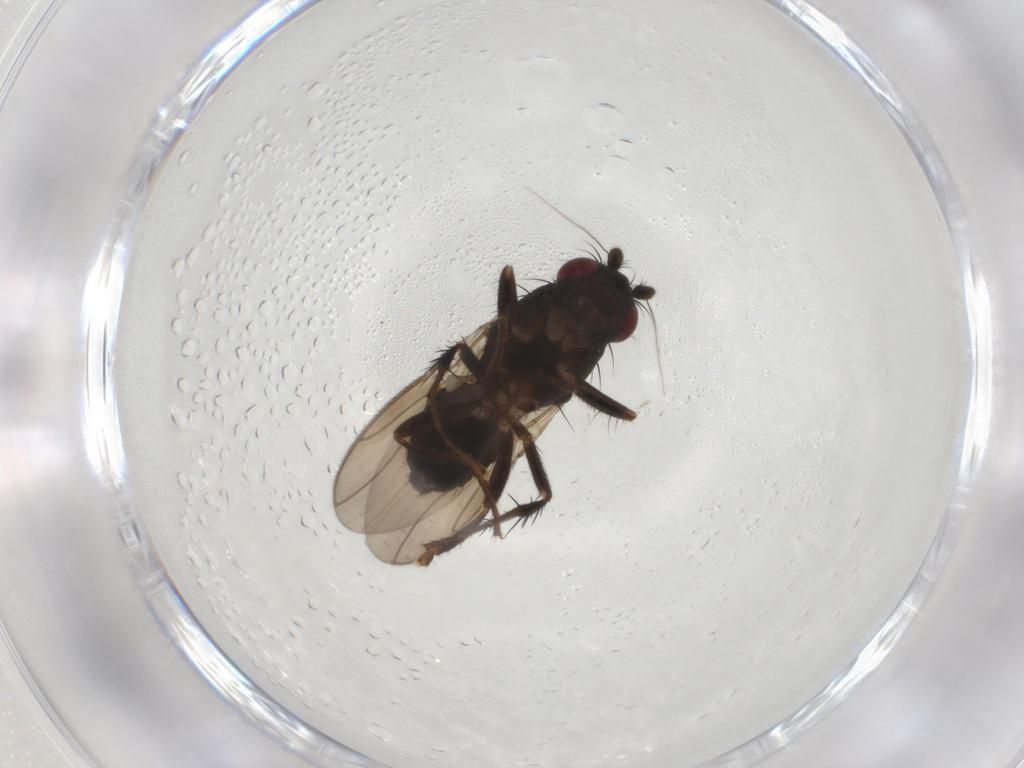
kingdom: Animalia
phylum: Arthropoda
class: Insecta
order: Diptera
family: Sphaeroceridae
